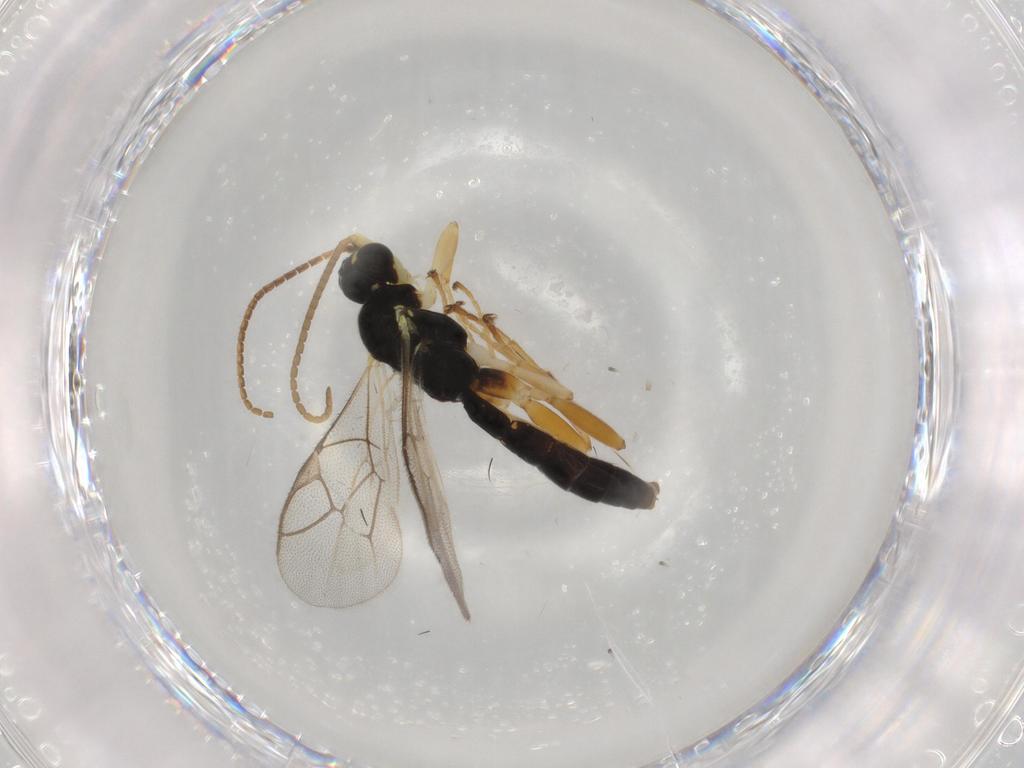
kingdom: Animalia
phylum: Arthropoda
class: Insecta
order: Hymenoptera
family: Ichneumonidae
